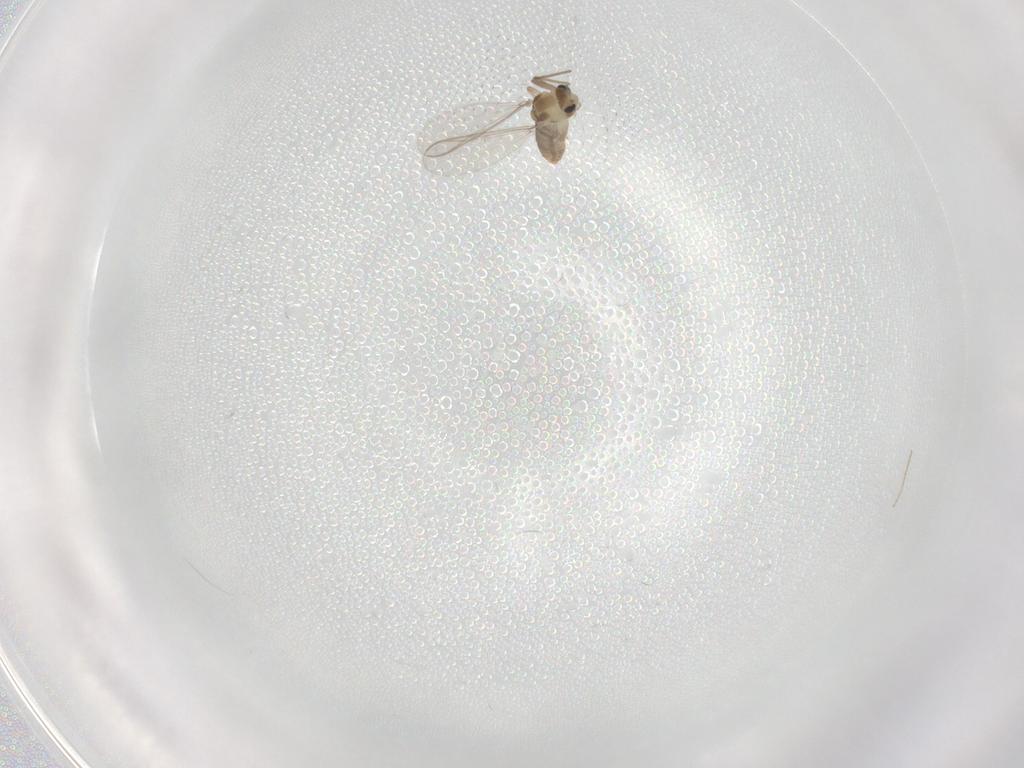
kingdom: Animalia
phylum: Arthropoda
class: Insecta
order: Diptera
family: Chironomidae
